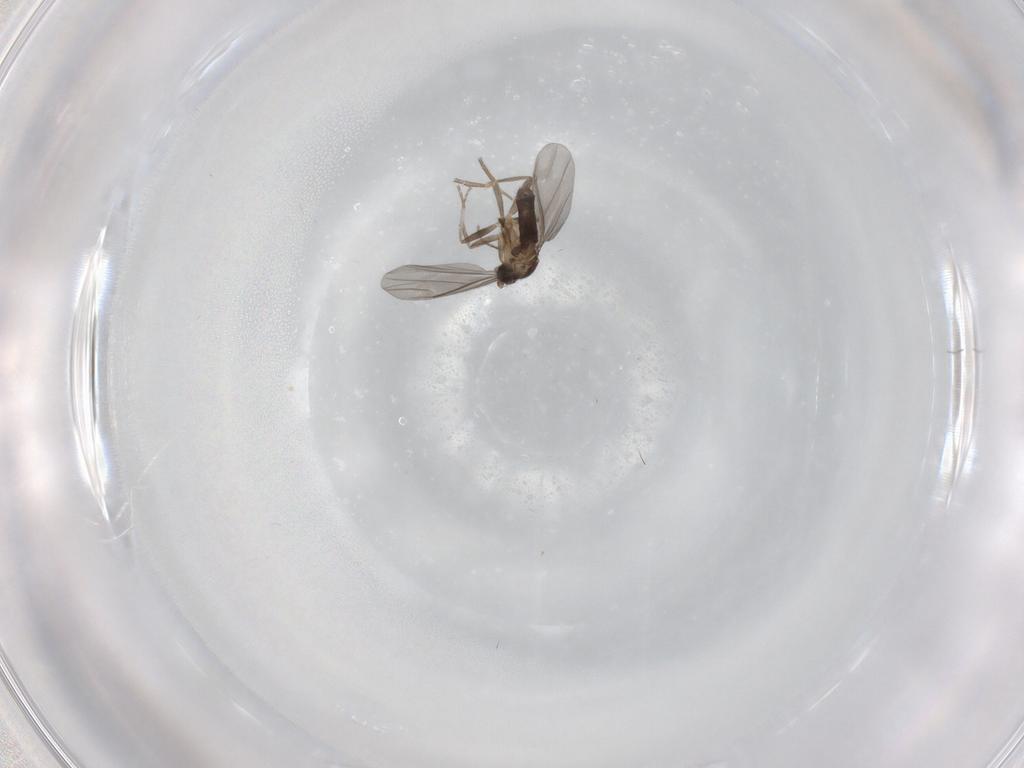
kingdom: Animalia
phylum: Arthropoda
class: Insecta
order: Diptera
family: Phoridae
